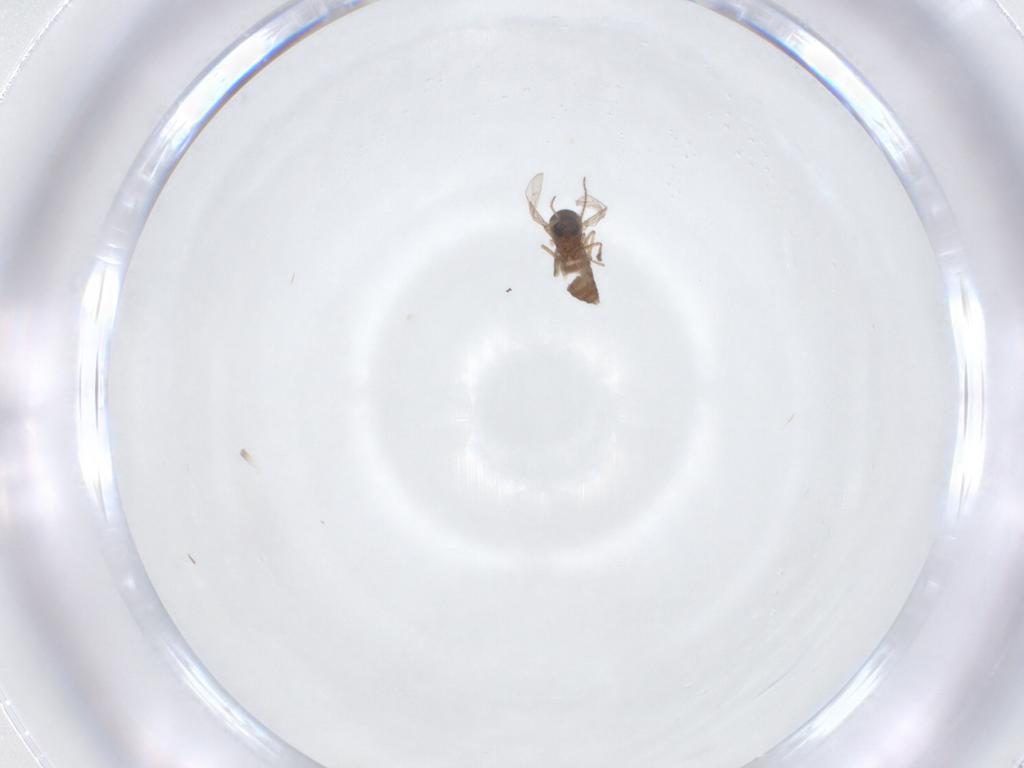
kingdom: Animalia
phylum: Arthropoda
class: Insecta
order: Diptera
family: Ceratopogonidae
